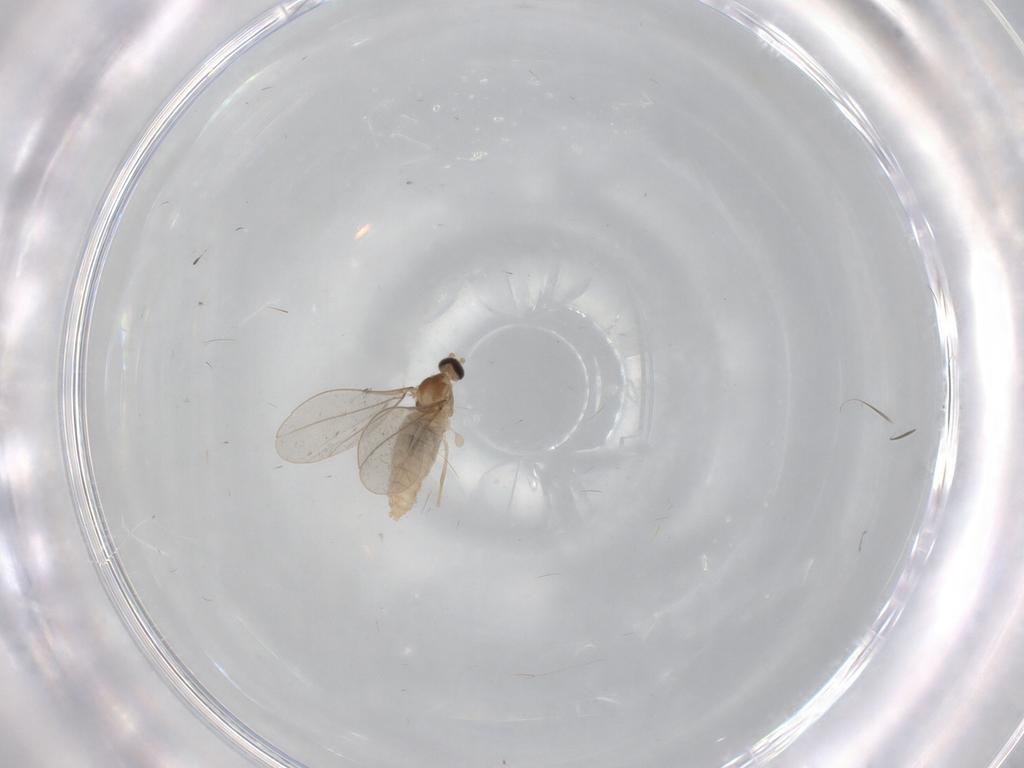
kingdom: Animalia
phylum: Arthropoda
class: Insecta
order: Diptera
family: Cecidomyiidae
